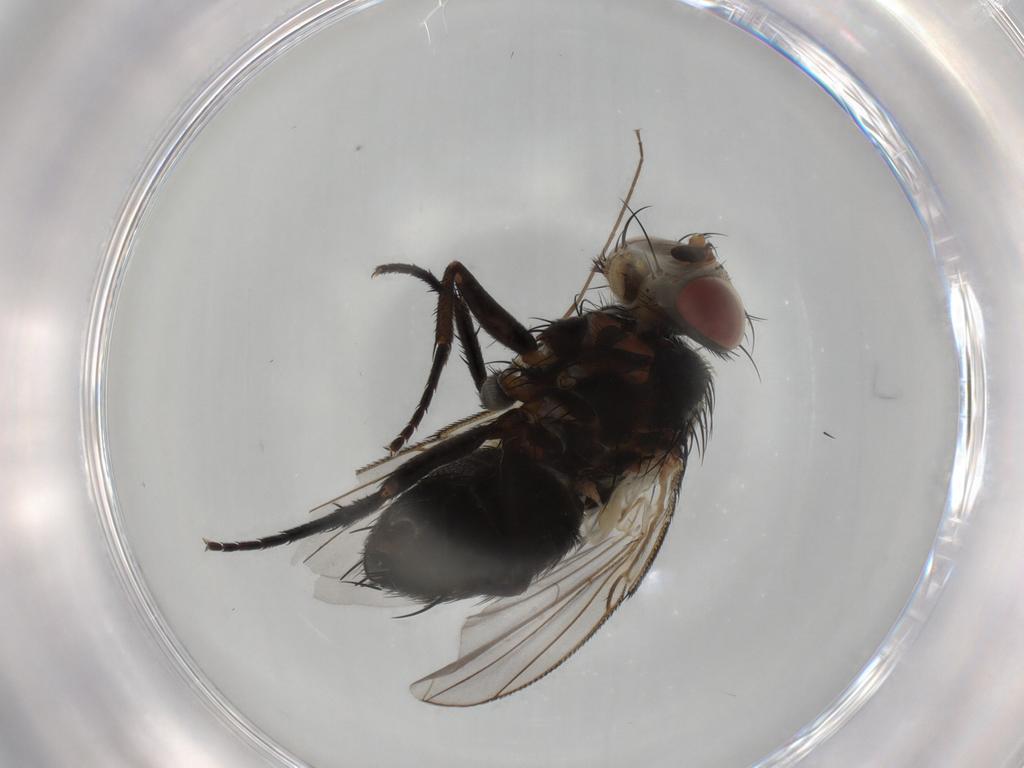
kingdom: Animalia
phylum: Arthropoda
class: Insecta
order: Diptera
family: Tachinidae
